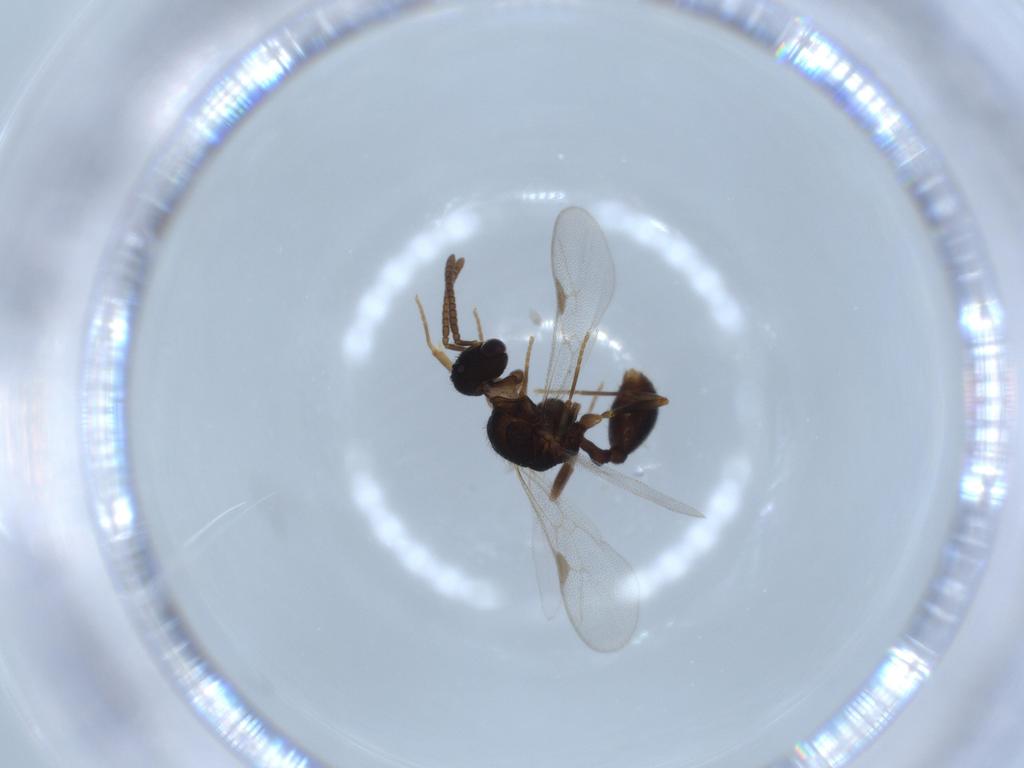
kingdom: Animalia
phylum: Arthropoda
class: Insecta
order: Hymenoptera
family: Formicidae
